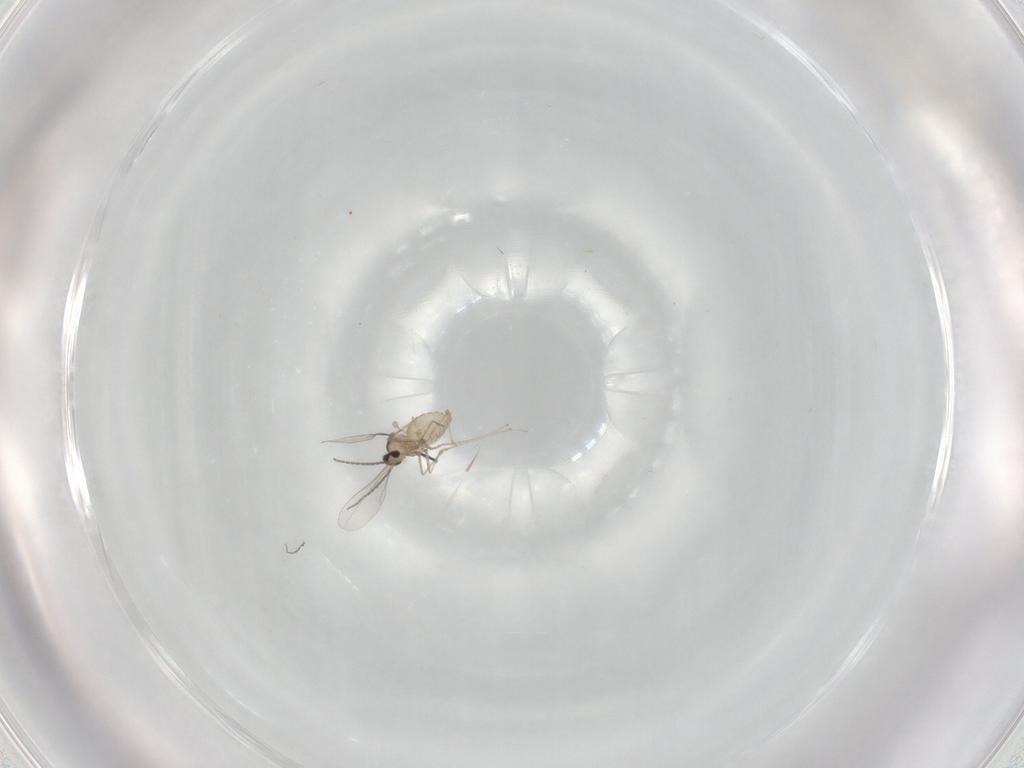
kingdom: Animalia
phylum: Arthropoda
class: Insecta
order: Diptera
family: Cecidomyiidae
